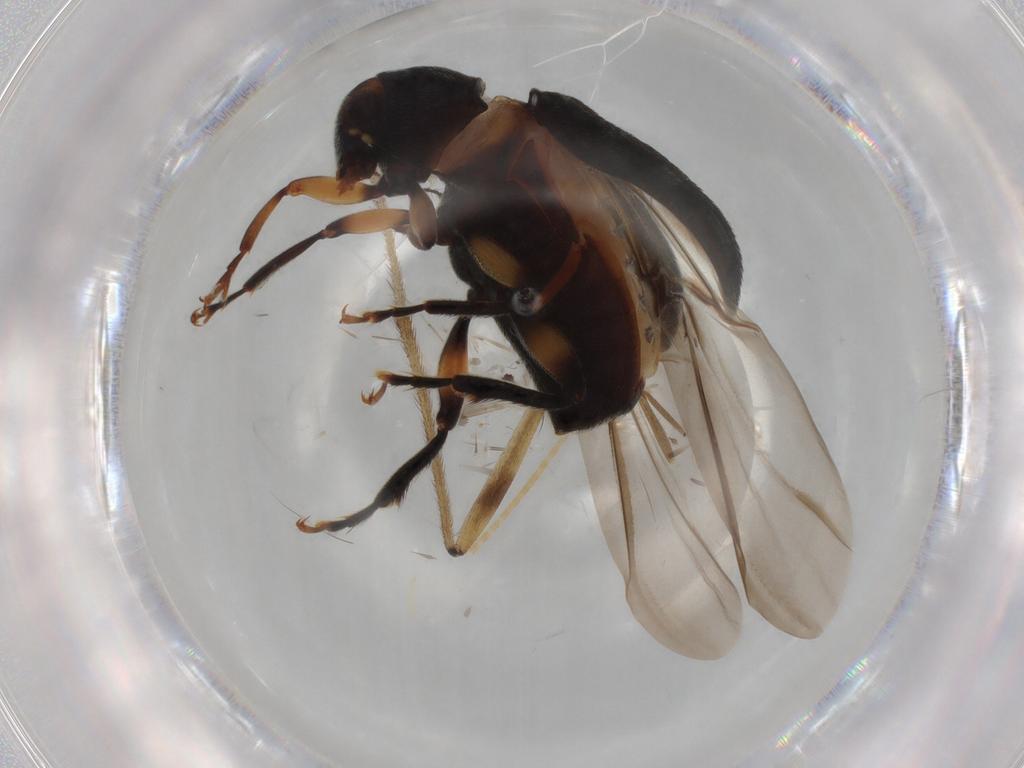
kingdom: Animalia
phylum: Arthropoda
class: Insecta
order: Coleoptera
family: Anthribidae
